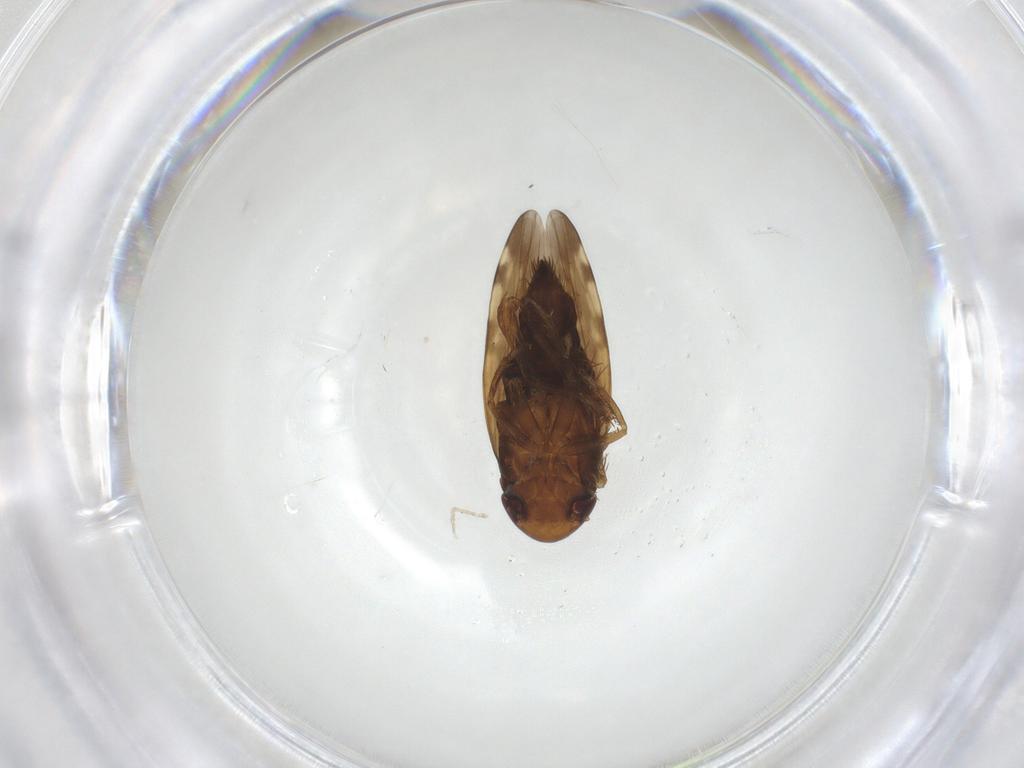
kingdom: Animalia
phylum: Arthropoda
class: Insecta
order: Hemiptera
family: Cicadellidae
